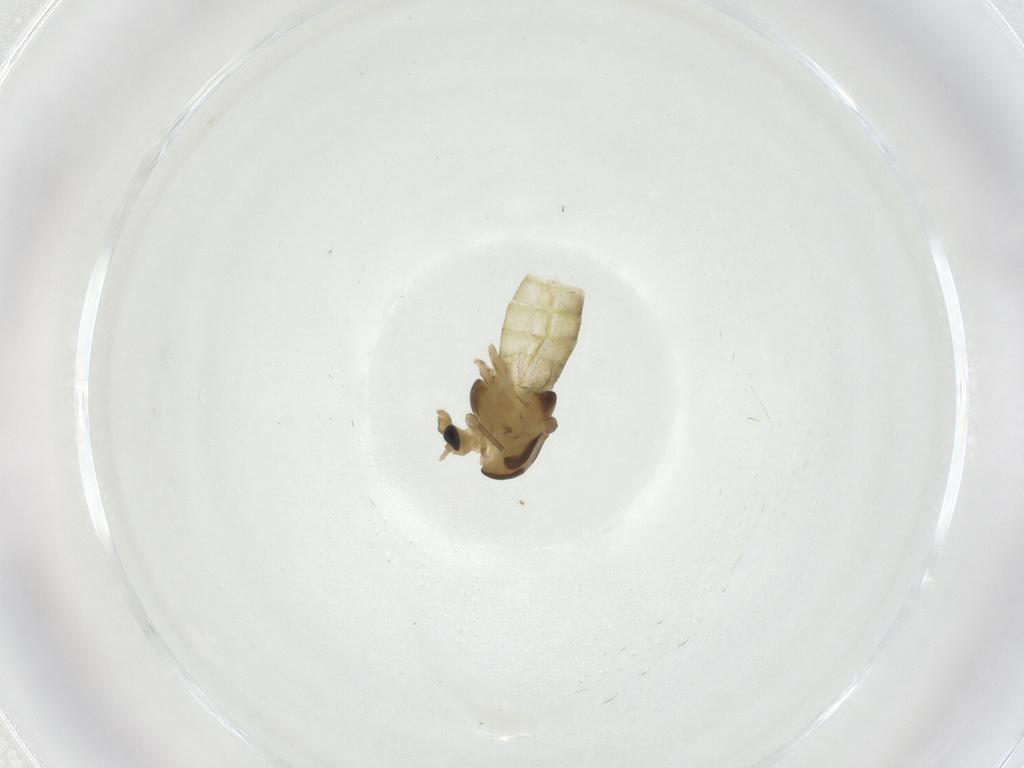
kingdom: Animalia
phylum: Arthropoda
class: Insecta
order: Diptera
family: Chironomidae
